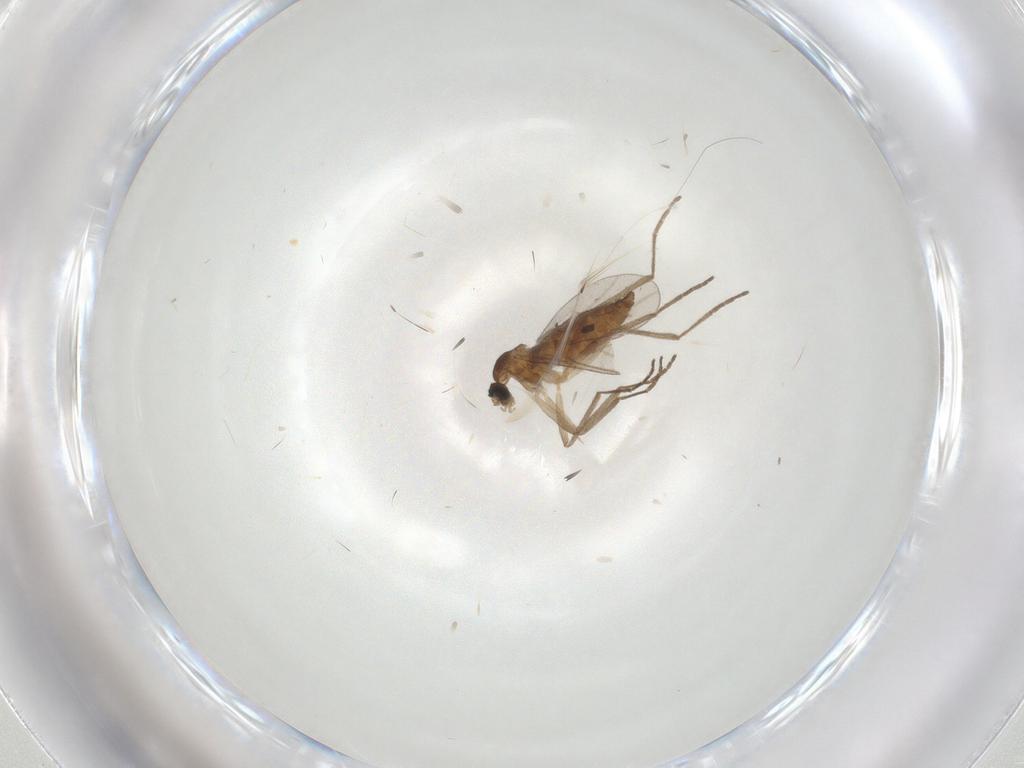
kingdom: Animalia
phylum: Arthropoda
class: Insecta
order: Diptera
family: Cecidomyiidae
